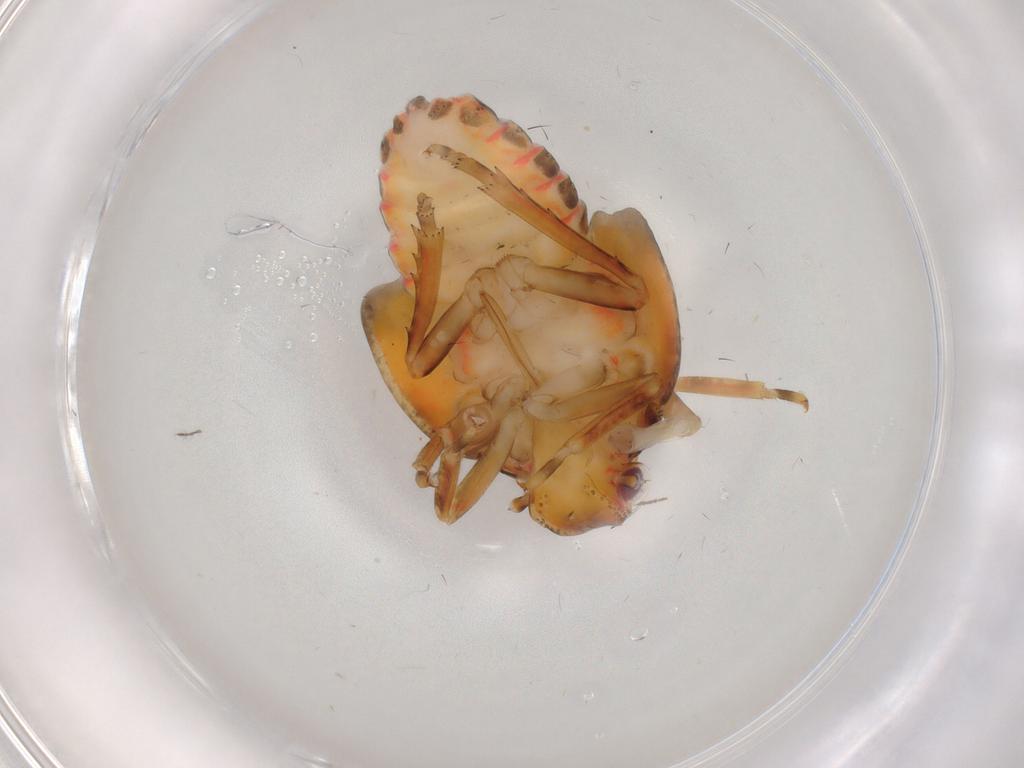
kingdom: Animalia
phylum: Arthropoda
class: Insecta
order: Hemiptera
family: Flatidae
